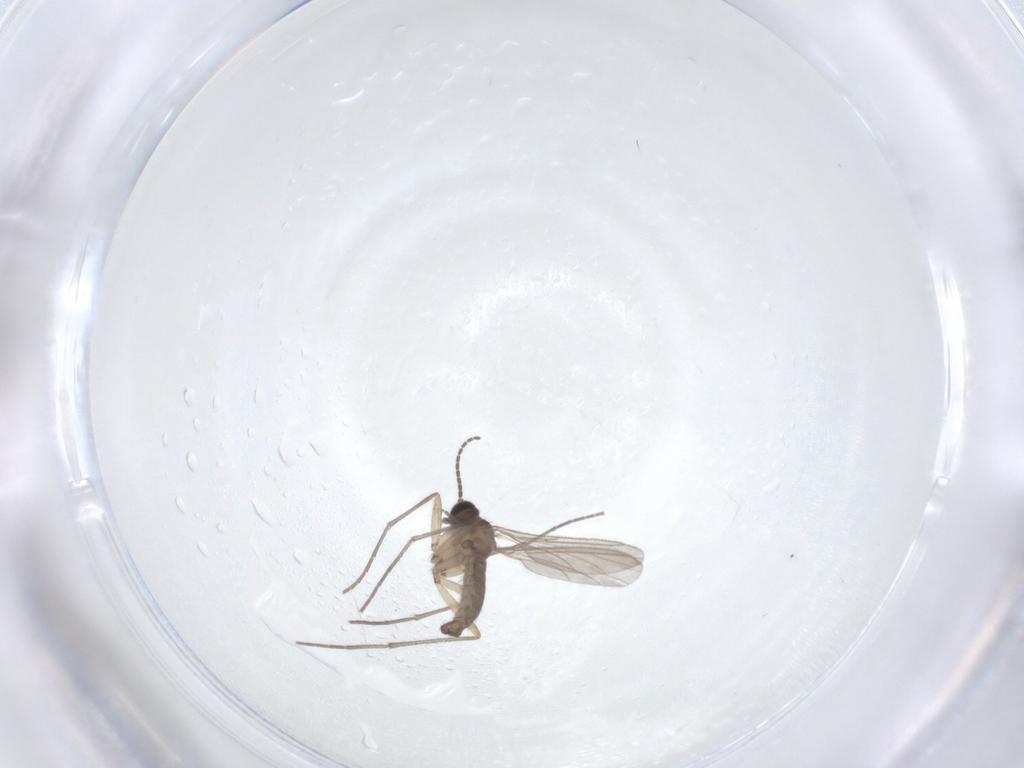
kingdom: Animalia
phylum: Arthropoda
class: Insecta
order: Diptera
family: Sciaridae
